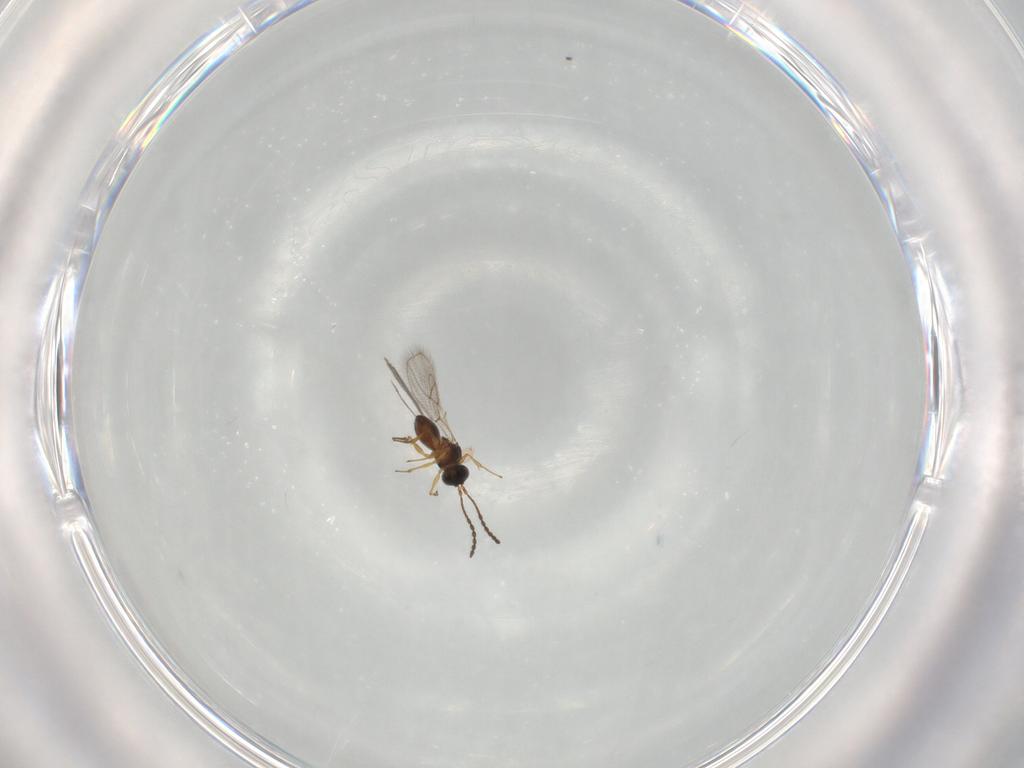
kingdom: Animalia
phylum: Arthropoda
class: Insecta
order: Hymenoptera
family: Figitidae
